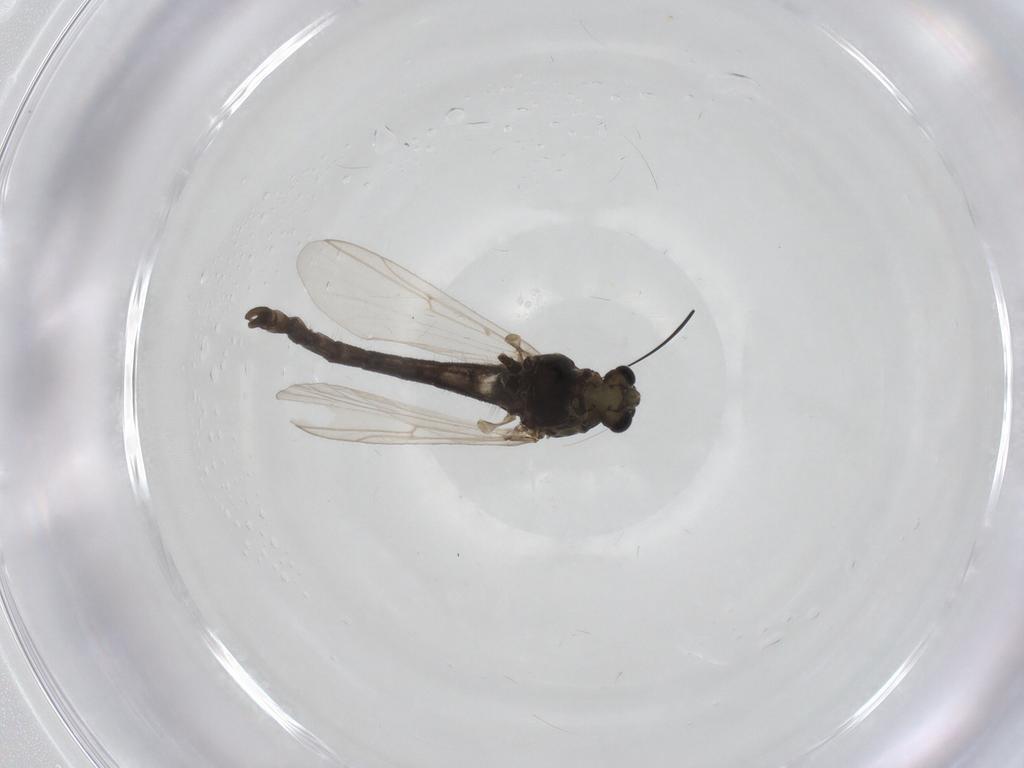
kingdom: Animalia
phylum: Arthropoda
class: Insecta
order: Diptera
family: Chironomidae
